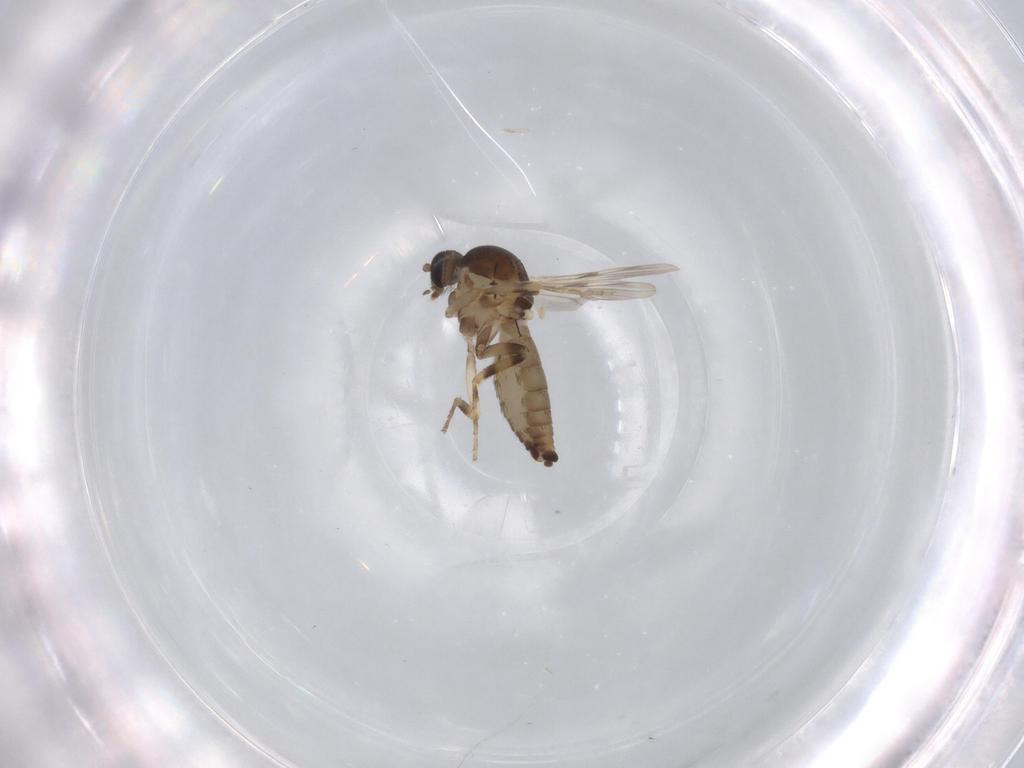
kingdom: Animalia
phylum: Arthropoda
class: Insecta
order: Diptera
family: Ceratopogonidae
